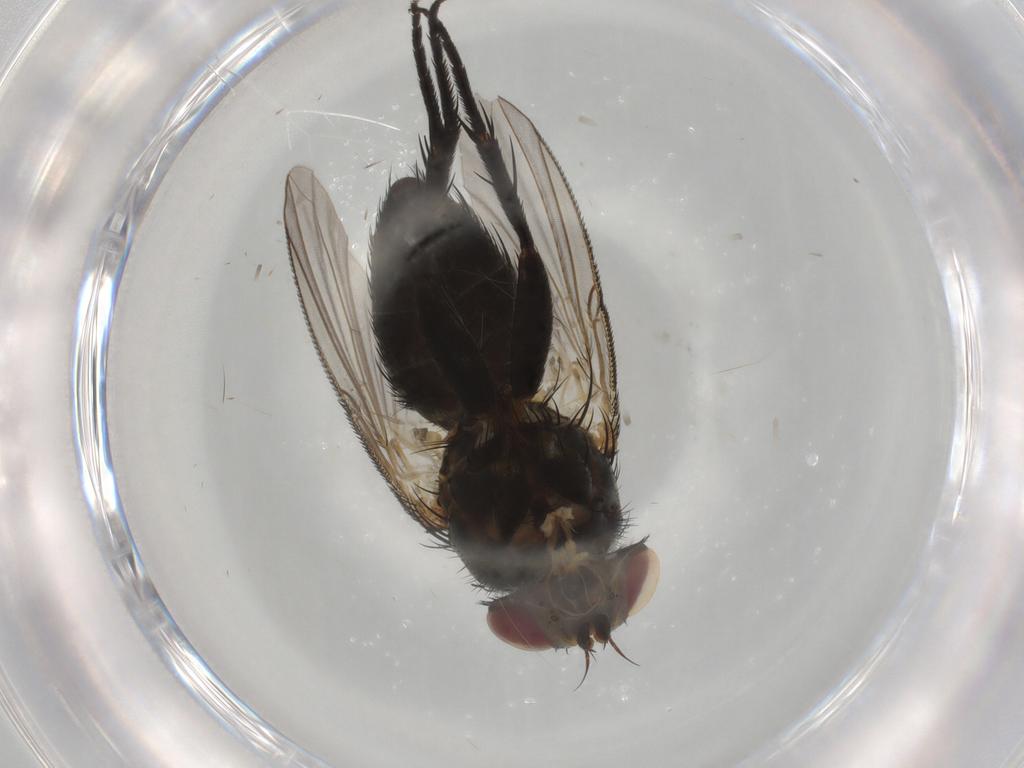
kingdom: Animalia
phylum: Arthropoda
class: Insecta
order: Diptera
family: Tachinidae
